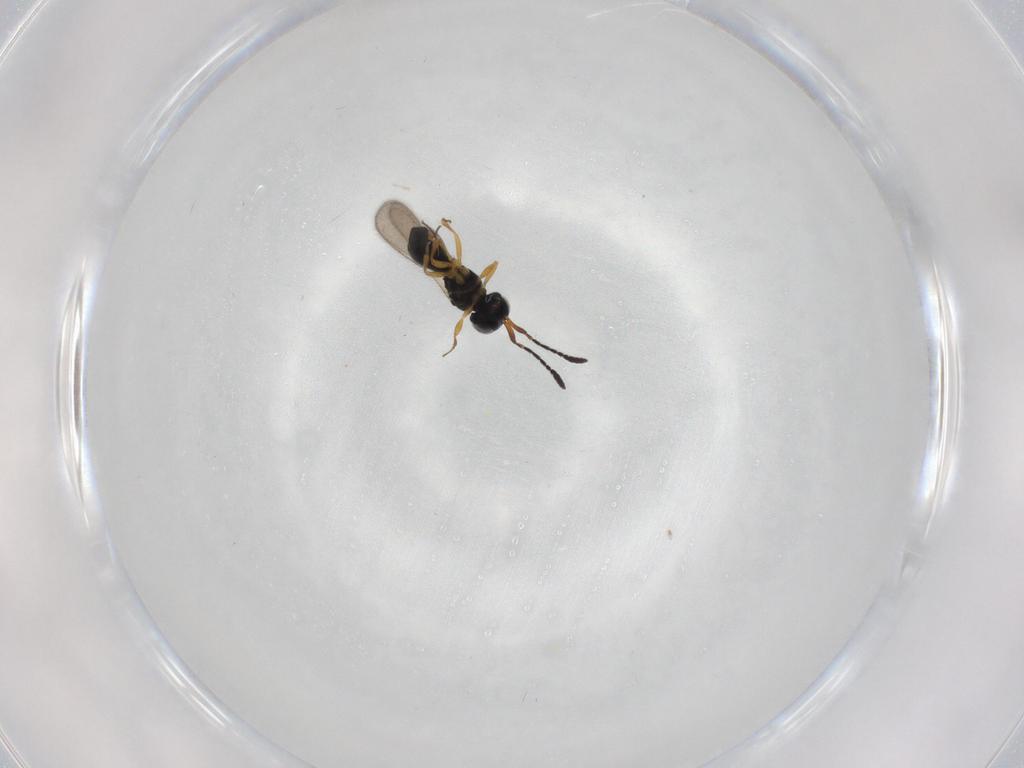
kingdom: Animalia
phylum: Arthropoda
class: Insecta
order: Hymenoptera
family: Scelionidae
